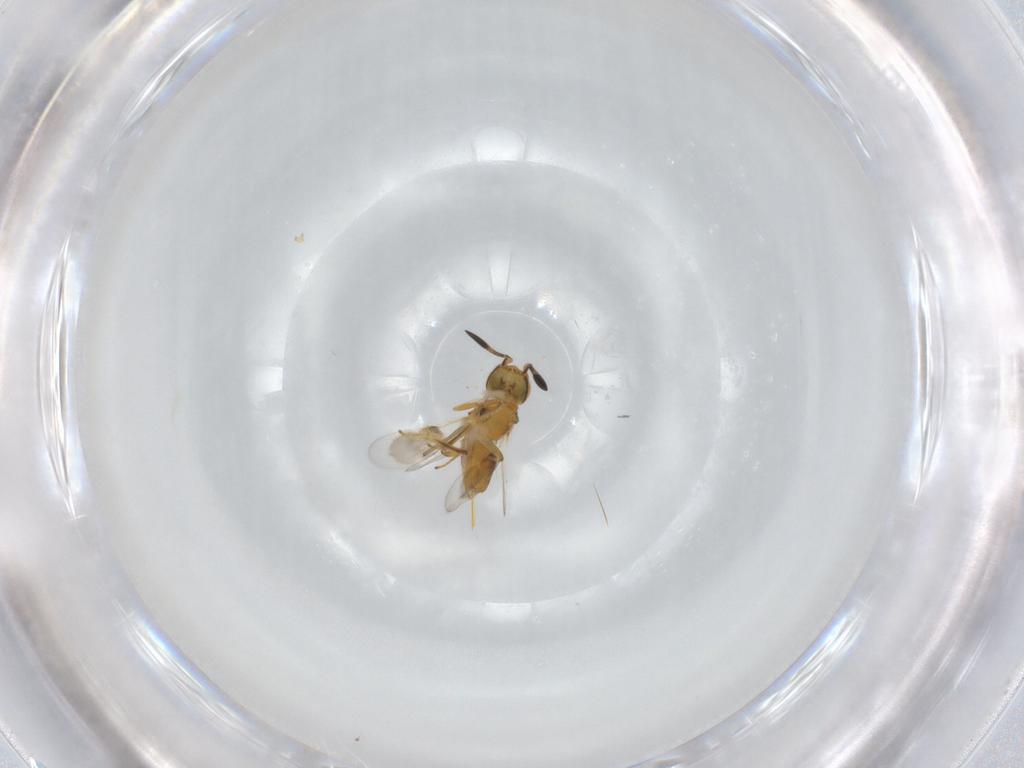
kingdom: Animalia
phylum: Arthropoda
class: Insecta
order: Hymenoptera
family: Encyrtidae
